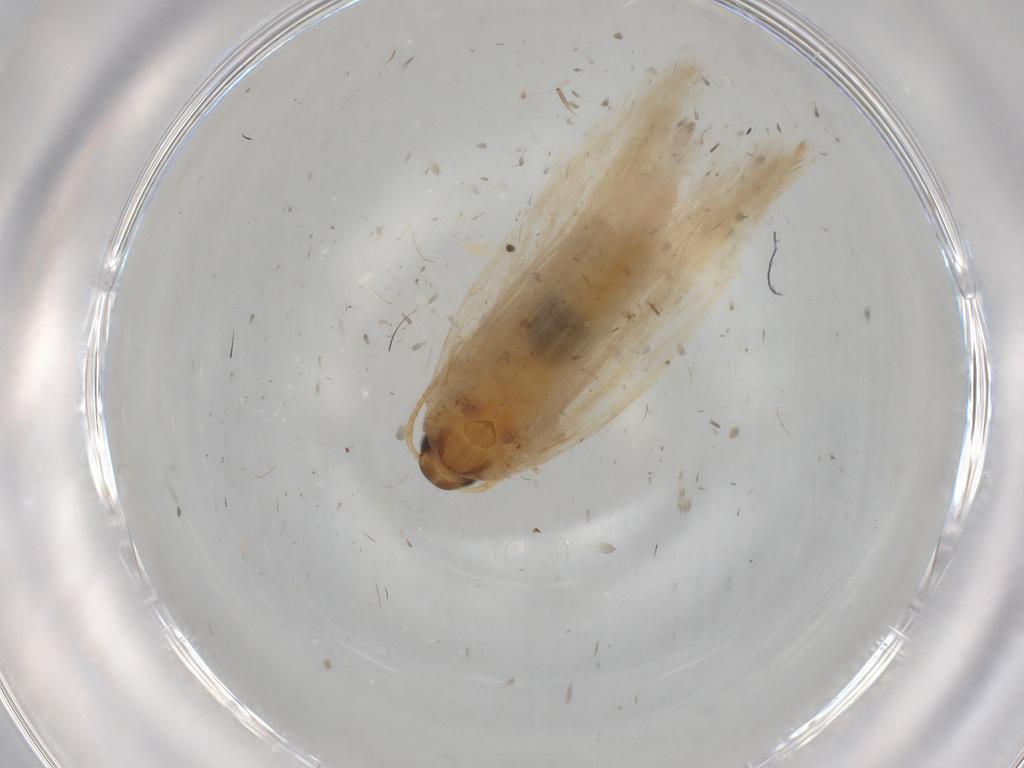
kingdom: Animalia
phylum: Arthropoda
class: Insecta
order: Lepidoptera
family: Gelechiidae
